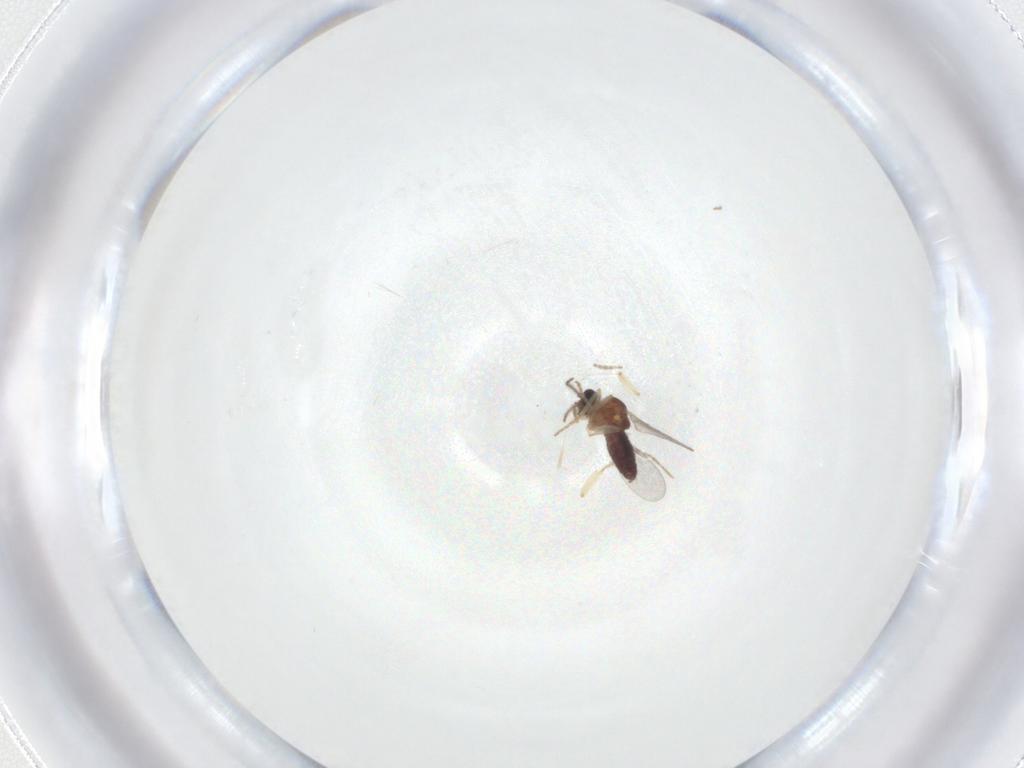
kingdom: Animalia
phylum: Arthropoda
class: Insecta
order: Diptera
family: Ceratopogonidae
